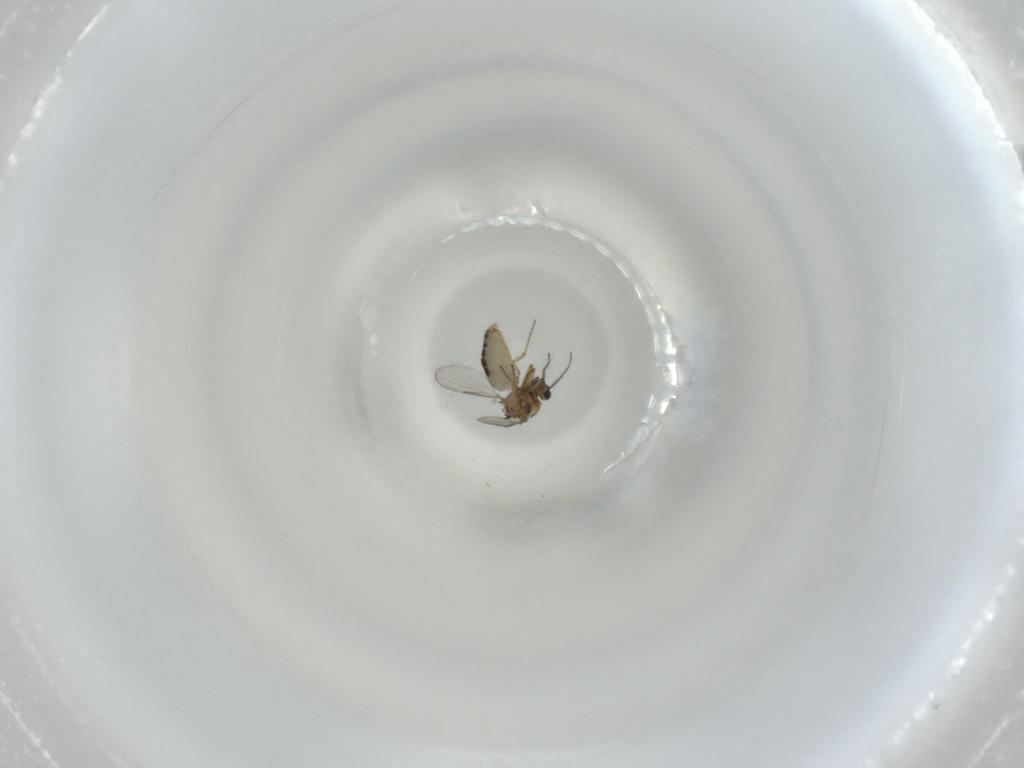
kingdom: Animalia
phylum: Arthropoda
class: Insecta
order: Diptera
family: Ceratopogonidae
